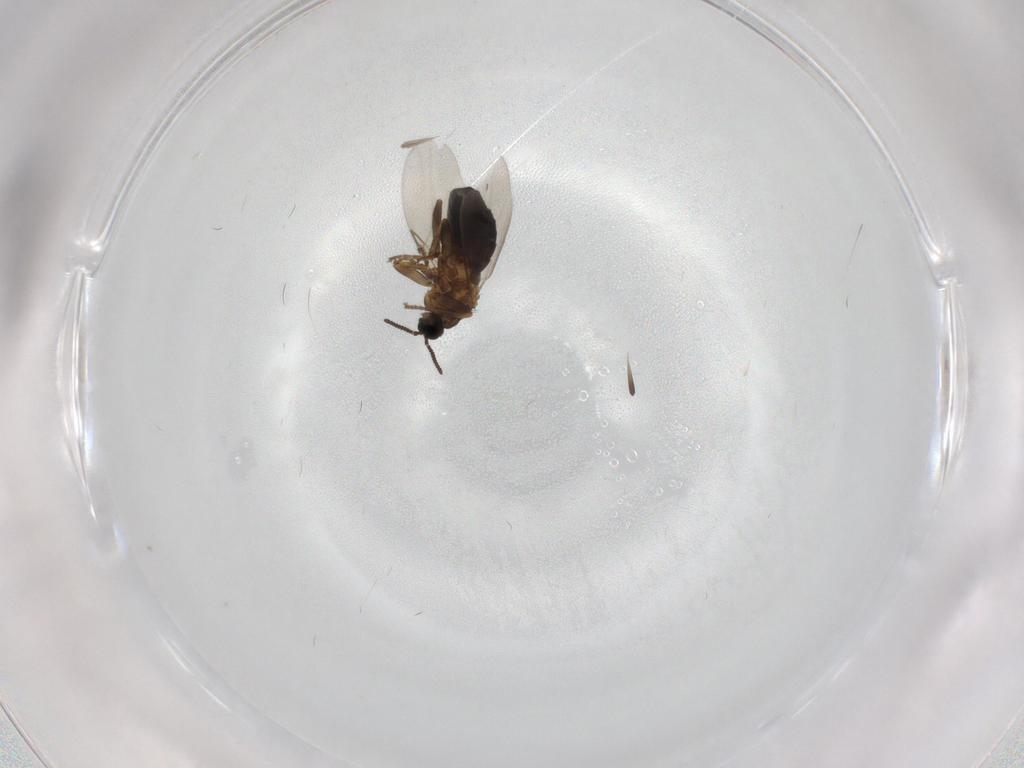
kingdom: Animalia
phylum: Arthropoda
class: Insecta
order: Diptera
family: Scatopsidae
